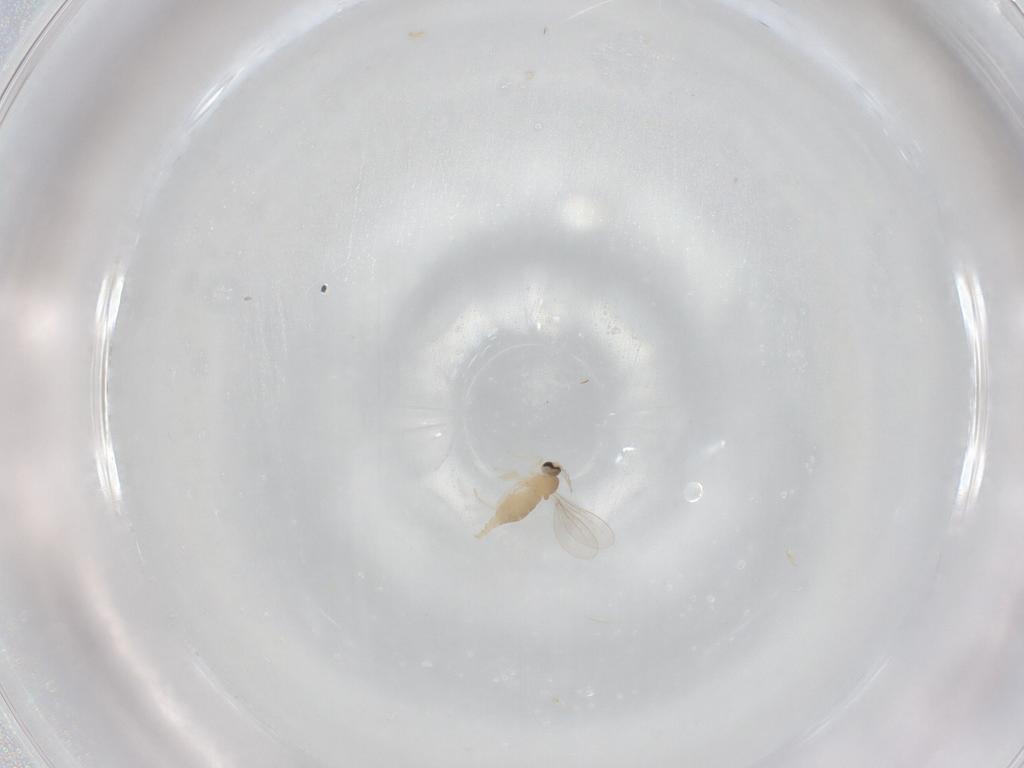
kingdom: Animalia
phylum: Arthropoda
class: Insecta
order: Diptera
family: Cecidomyiidae
